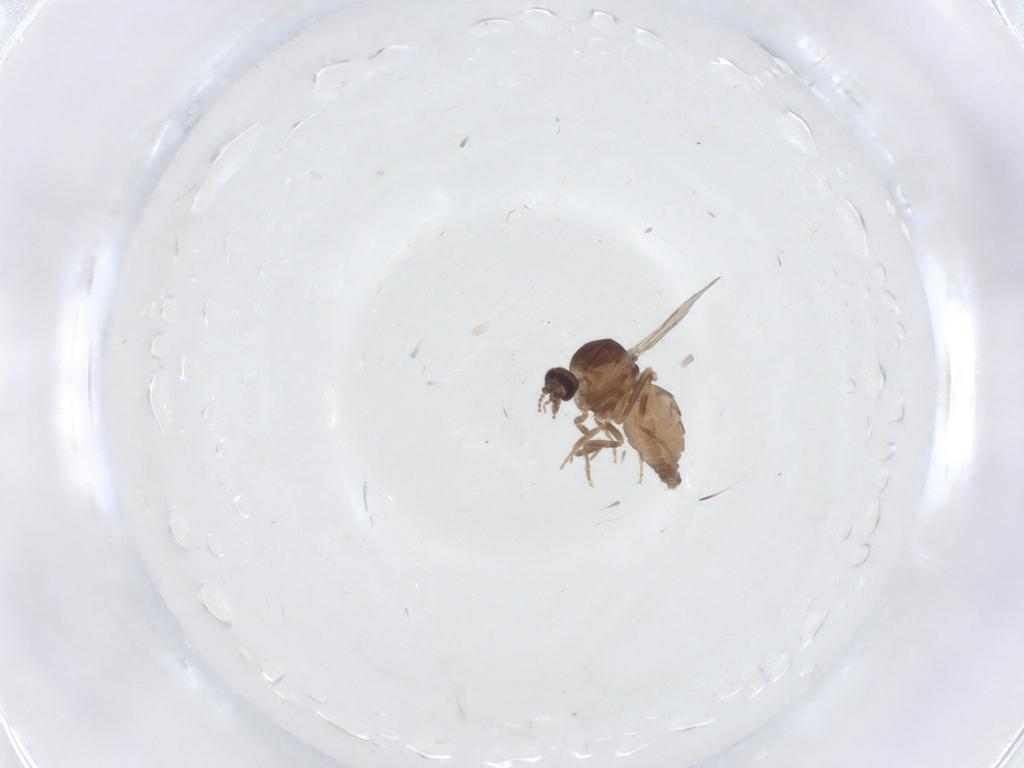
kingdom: Animalia
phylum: Arthropoda
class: Insecta
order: Diptera
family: Ceratopogonidae
